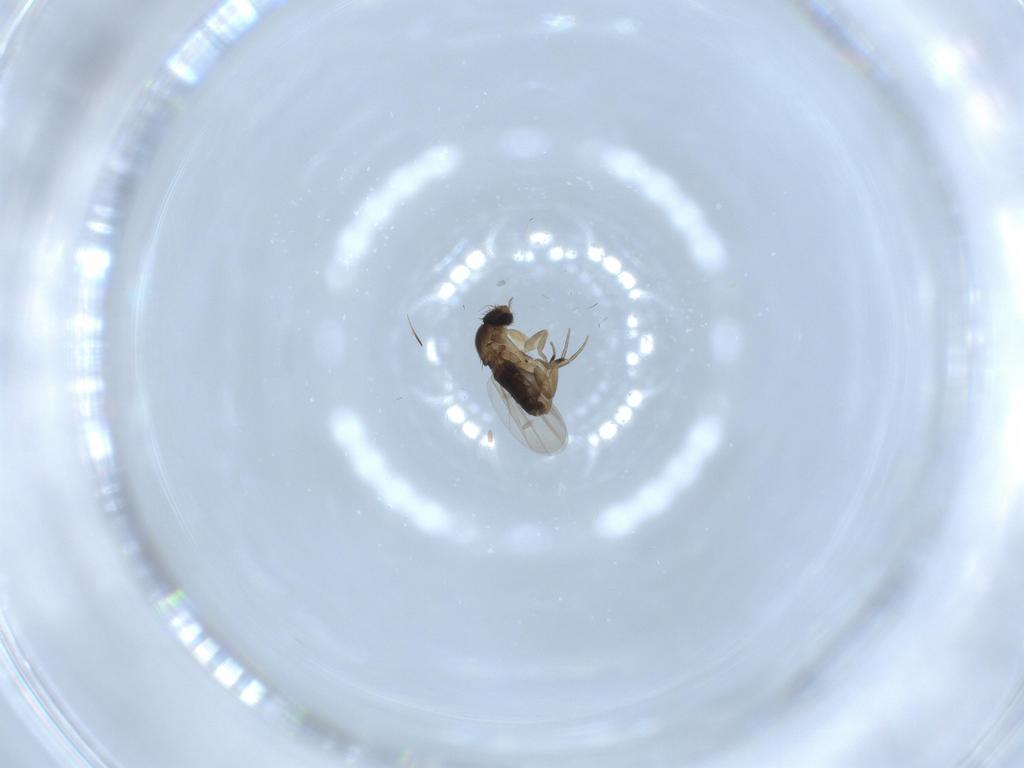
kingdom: Animalia
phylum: Arthropoda
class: Insecta
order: Diptera
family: Phoridae
